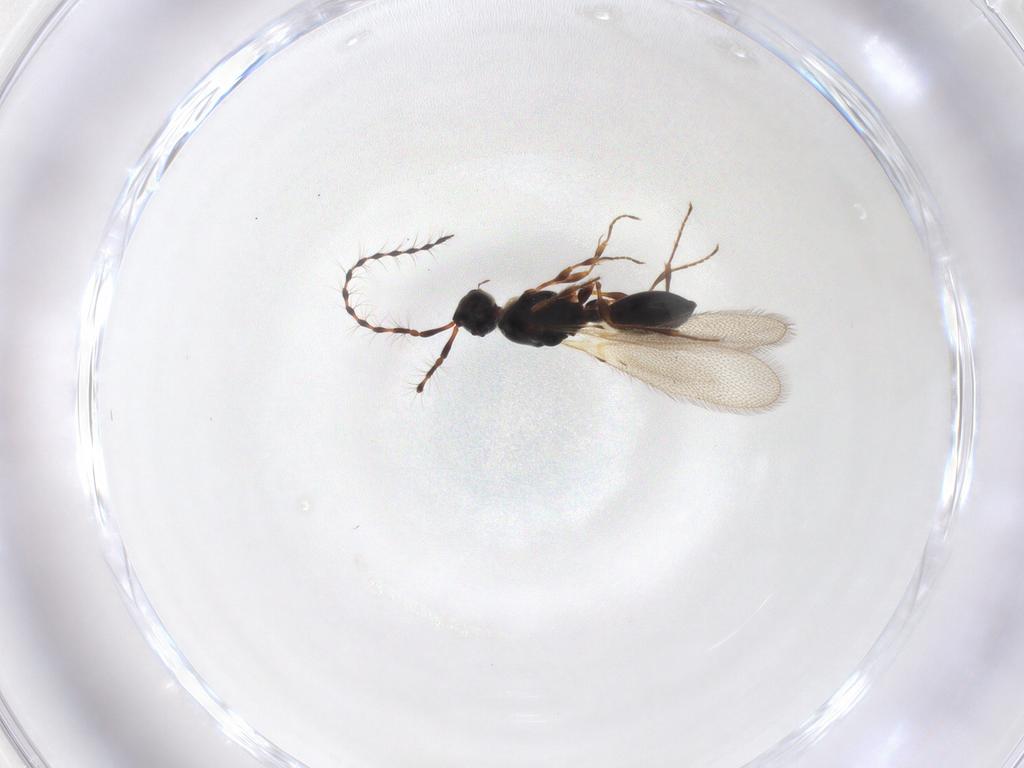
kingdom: Animalia
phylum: Arthropoda
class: Insecta
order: Hymenoptera
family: Diapriidae
